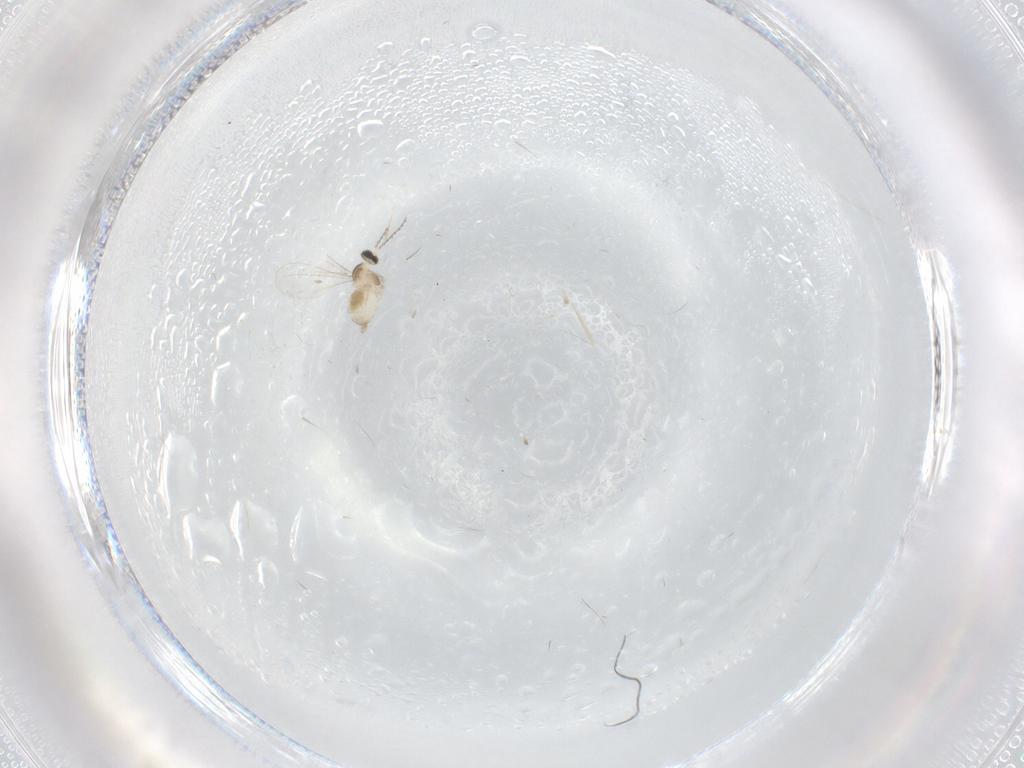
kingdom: Animalia
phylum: Arthropoda
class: Insecta
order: Diptera
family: Cecidomyiidae
